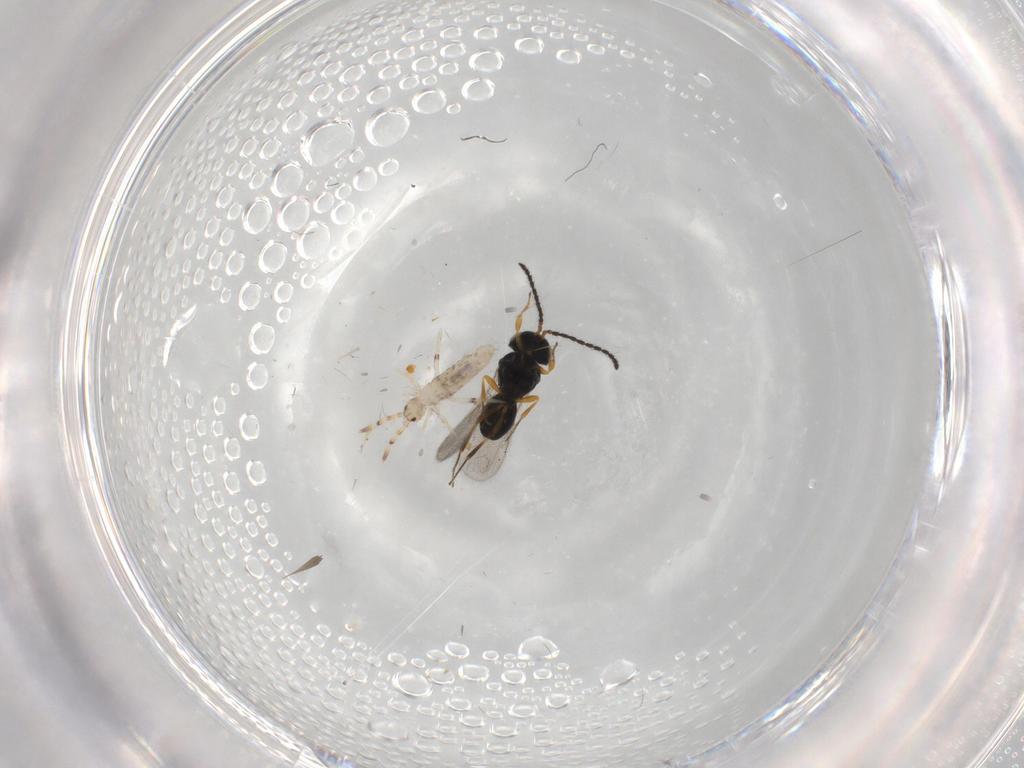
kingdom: Animalia
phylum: Arthropoda
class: Insecta
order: Hymenoptera
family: Scelionidae
